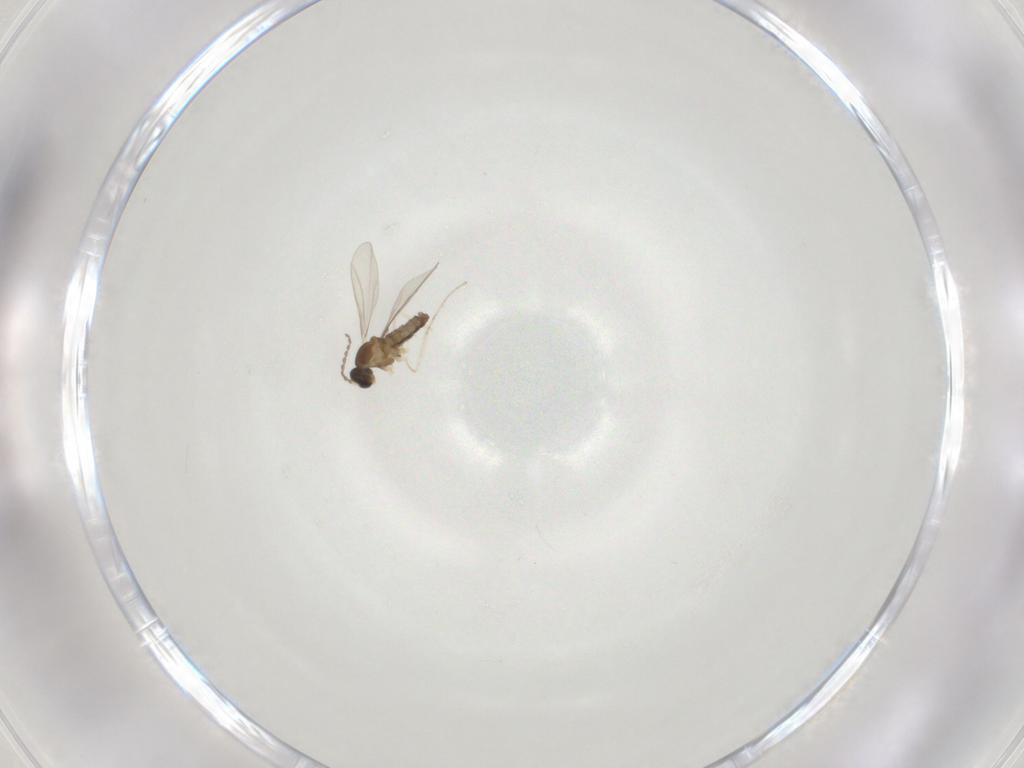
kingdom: Animalia
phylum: Arthropoda
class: Insecta
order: Diptera
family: Cecidomyiidae
